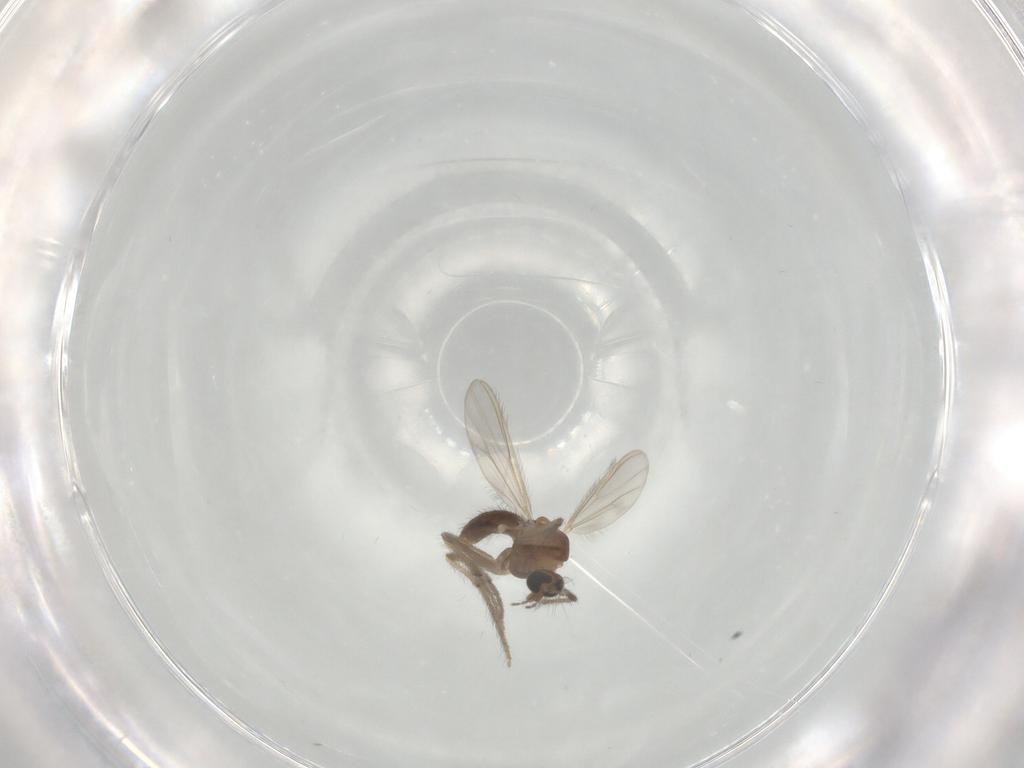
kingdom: Animalia
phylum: Arthropoda
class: Insecta
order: Diptera
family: Chironomidae
